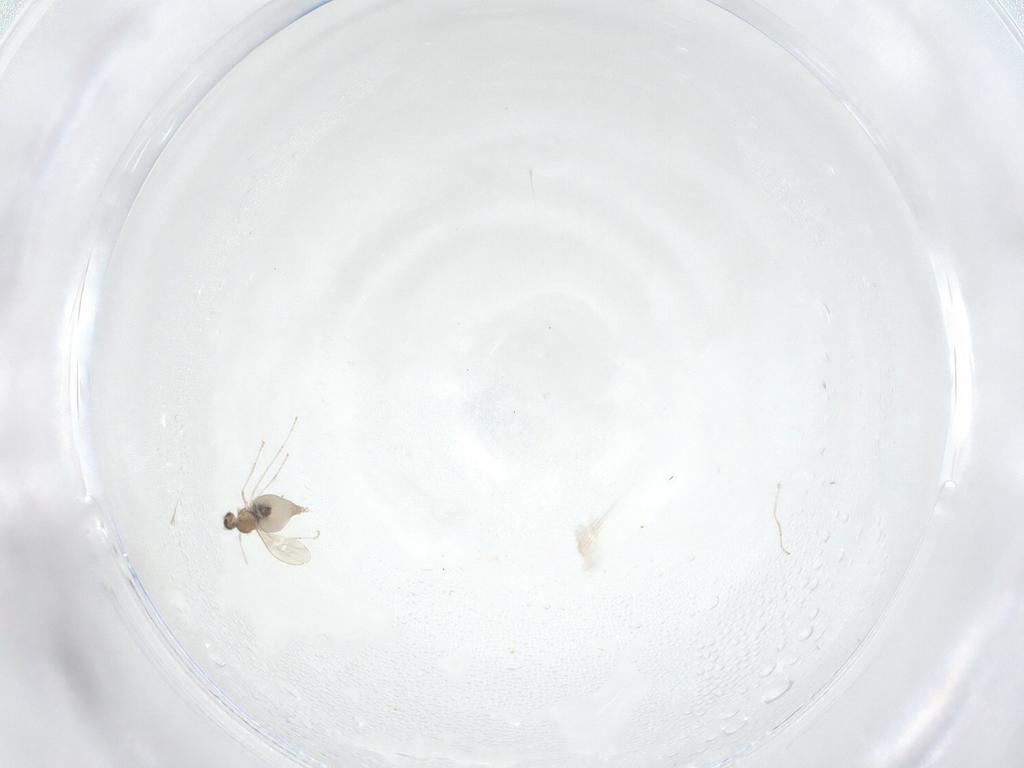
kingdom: Animalia
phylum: Arthropoda
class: Insecta
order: Diptera
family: Cecidomyiidae
